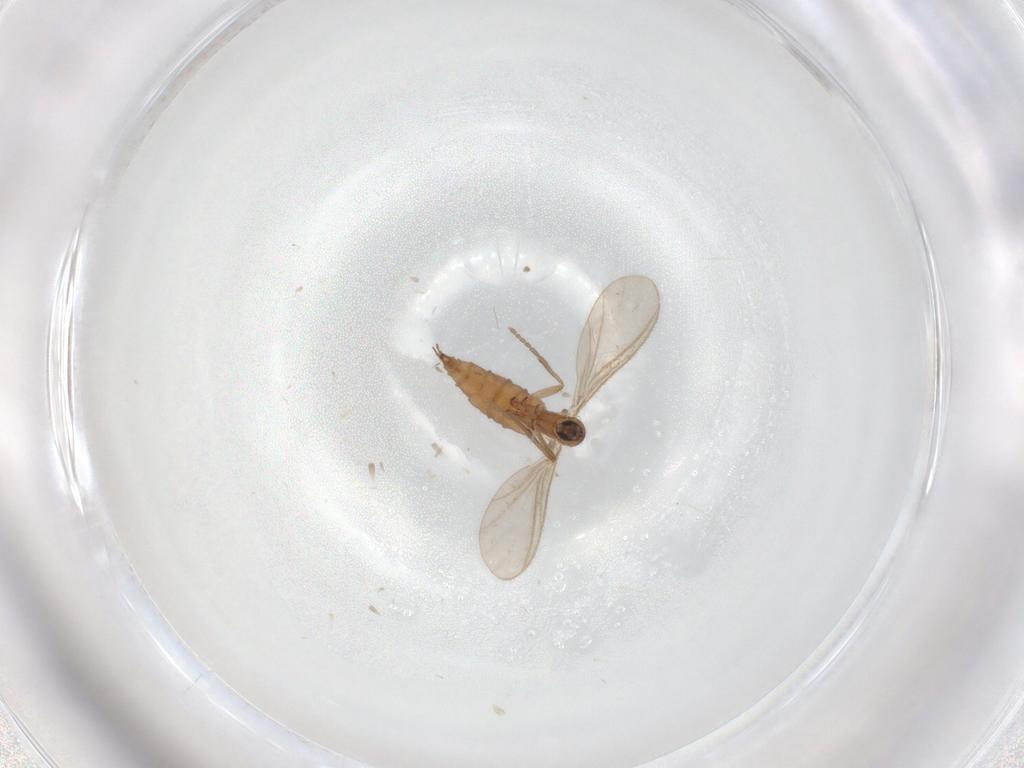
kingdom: Animalia
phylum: Arthropoda
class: Insecta
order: Diptera
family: Sciaridae
